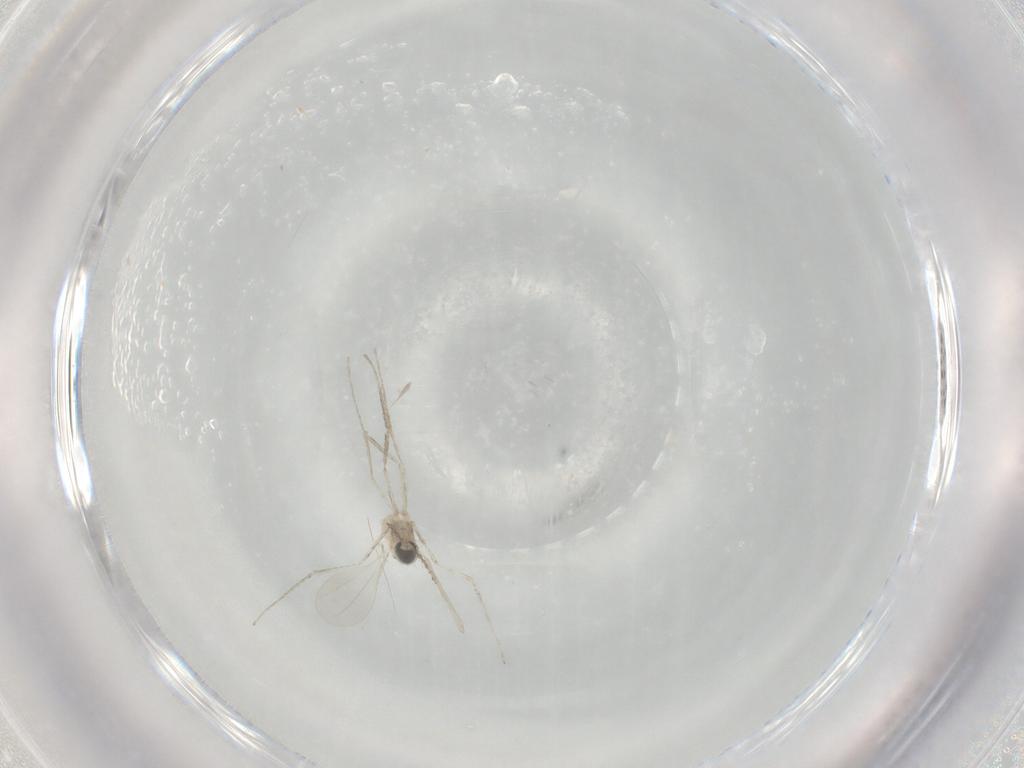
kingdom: Animalia
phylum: Arthropoda
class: Insecta
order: Diptera
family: Cecidomyiidae
